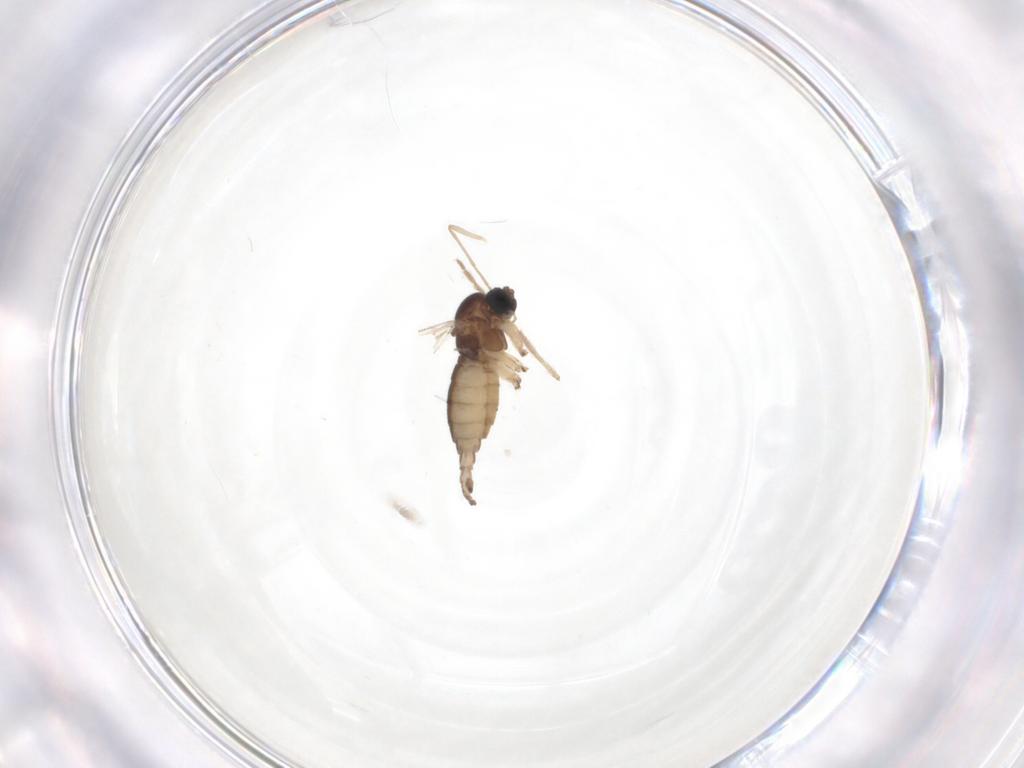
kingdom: Animalia
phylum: Arthropoda
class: Insecta
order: Diptera
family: Sciaridae
